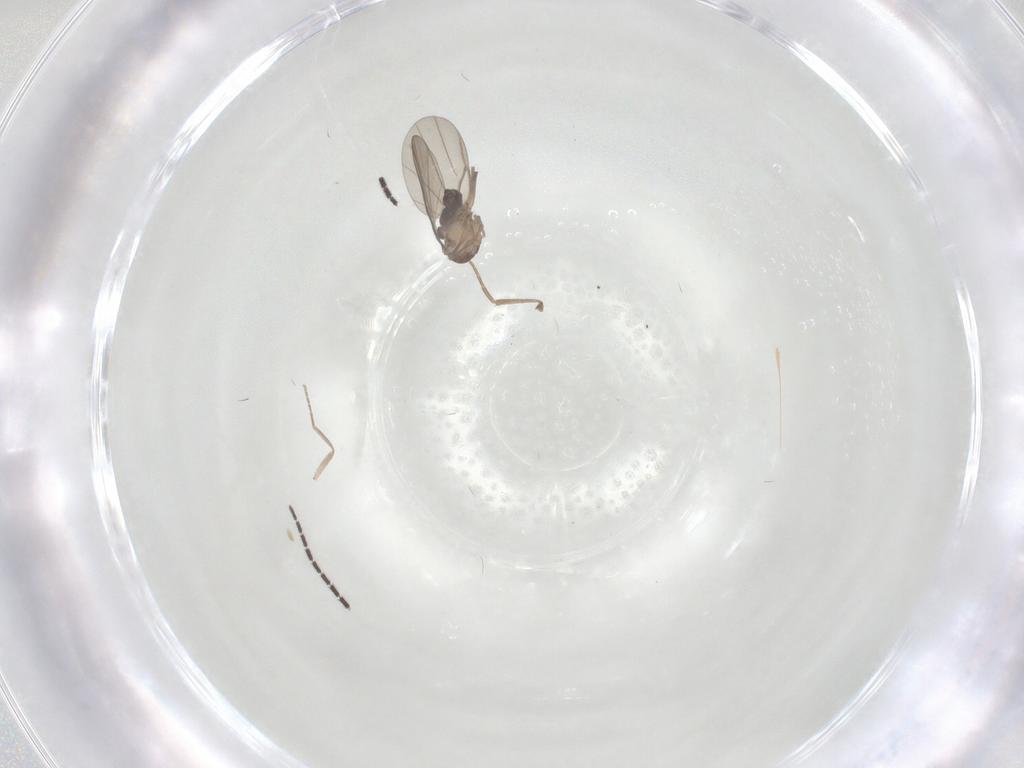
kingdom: Animalia
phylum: Arthropoda
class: Insecta
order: Diptera
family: Sciaridae
